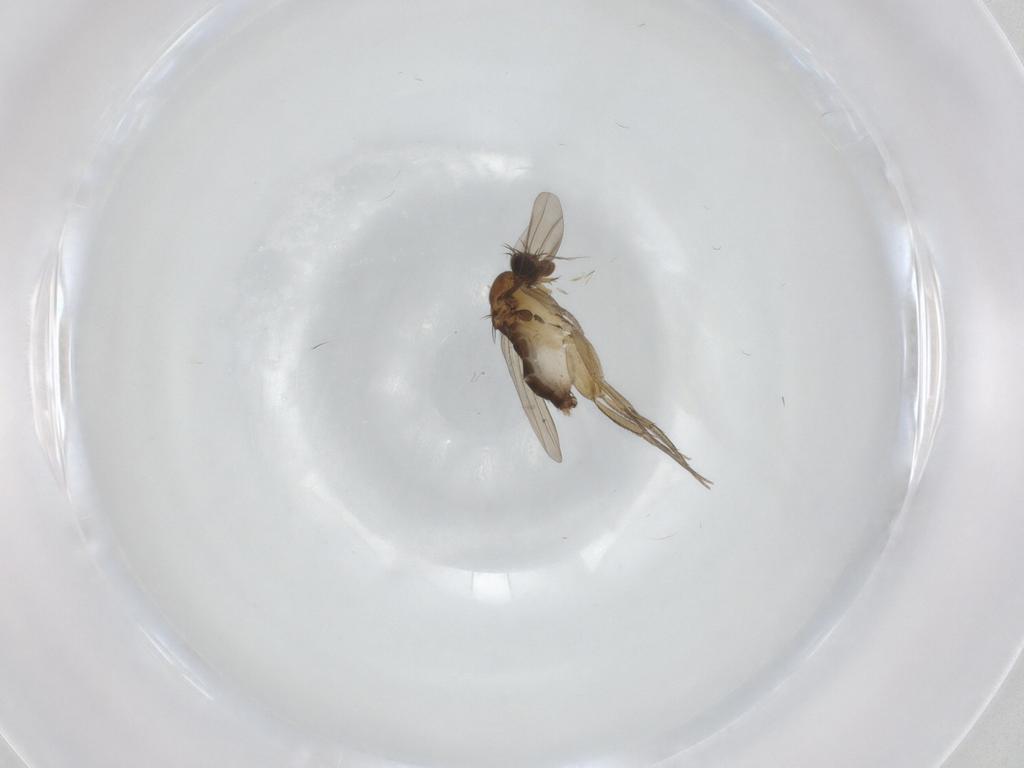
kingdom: Animalia
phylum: Arthropoda
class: Insecta
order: Diptera
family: Phoridae
